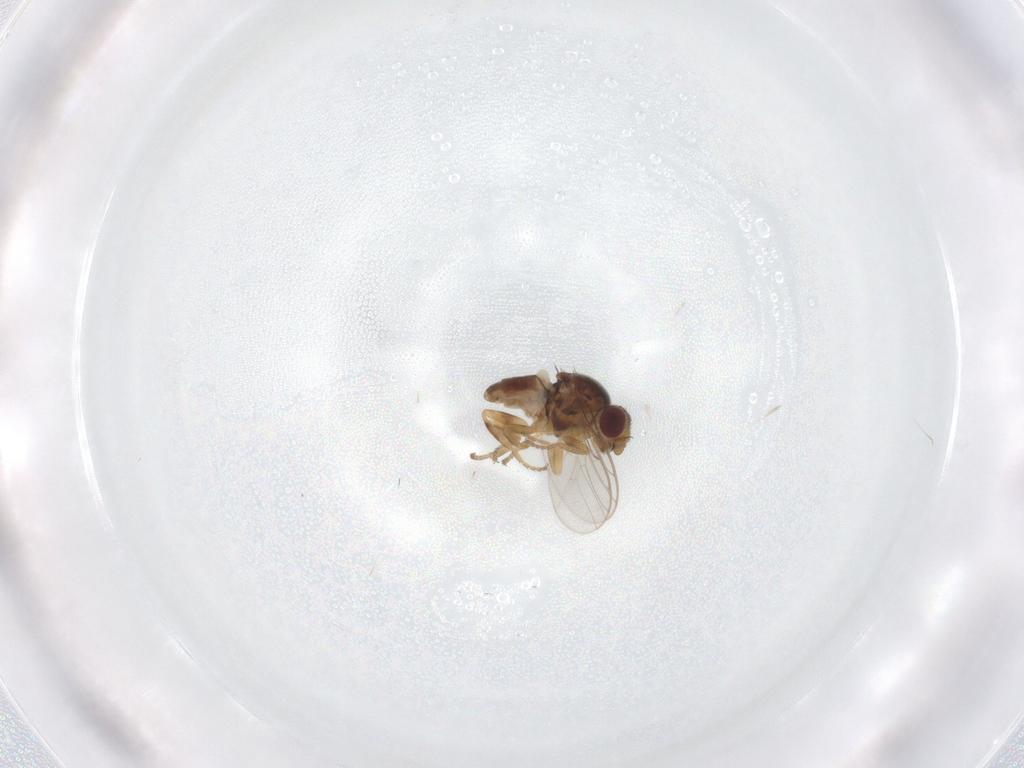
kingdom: Animalia
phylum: Arthropoda
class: Insecta
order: Diptera
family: Chloropidae
